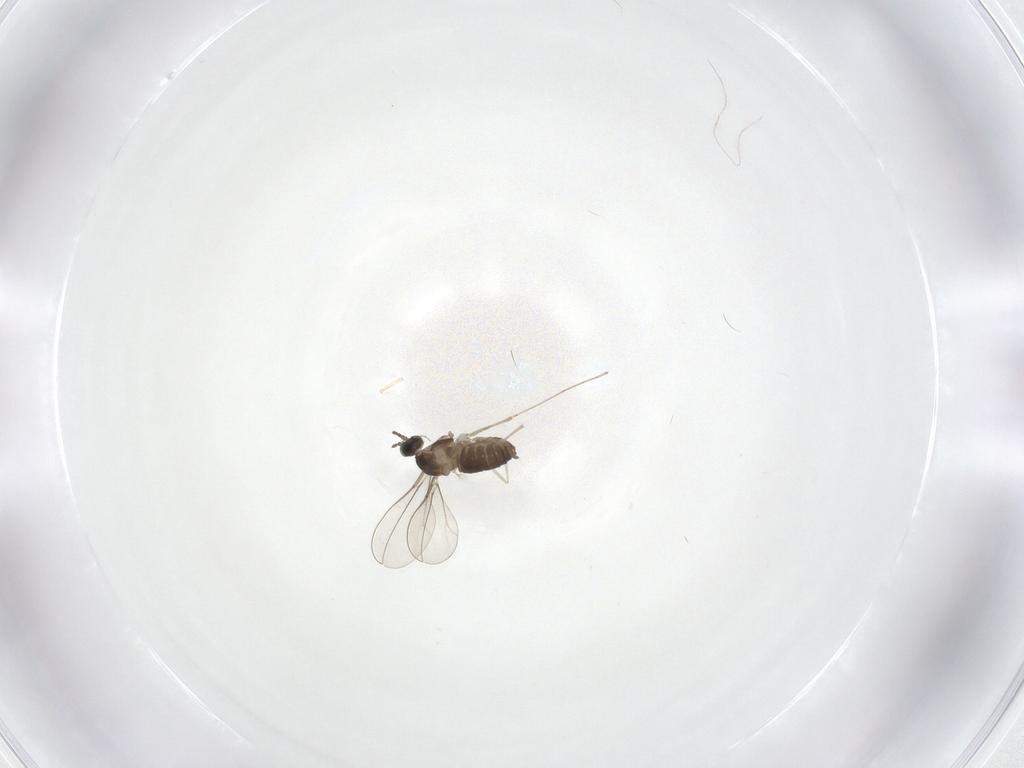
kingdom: Animalia
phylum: Arthropoda
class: Insecta
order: Diptera
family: Cecidomyiidae
